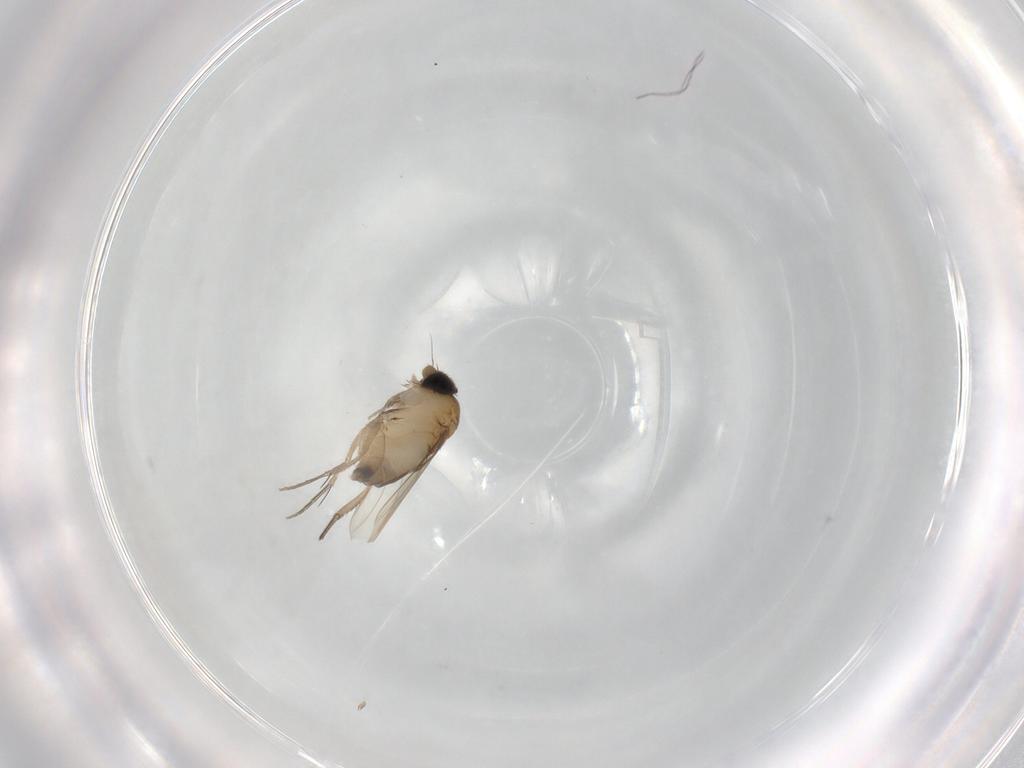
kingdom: Animalia
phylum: Arthropoda
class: Insecta
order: Diptera
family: Phoridae
